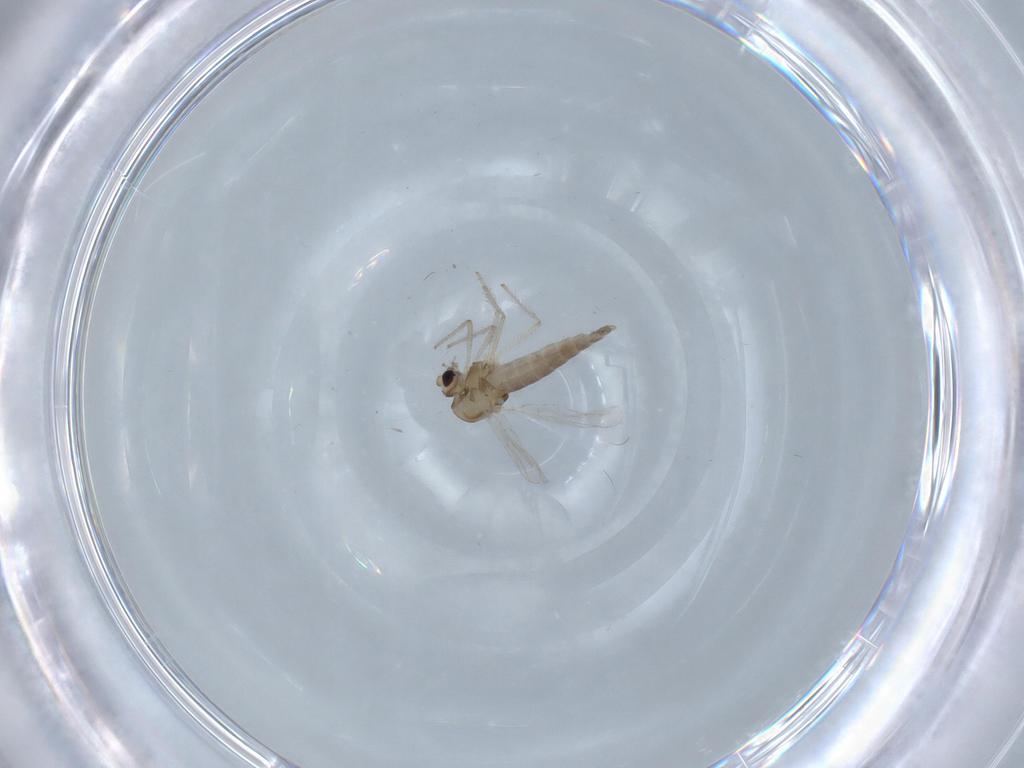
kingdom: Animalia
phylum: Arthropoda
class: Insecta
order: Diptera
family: Chironomidae
